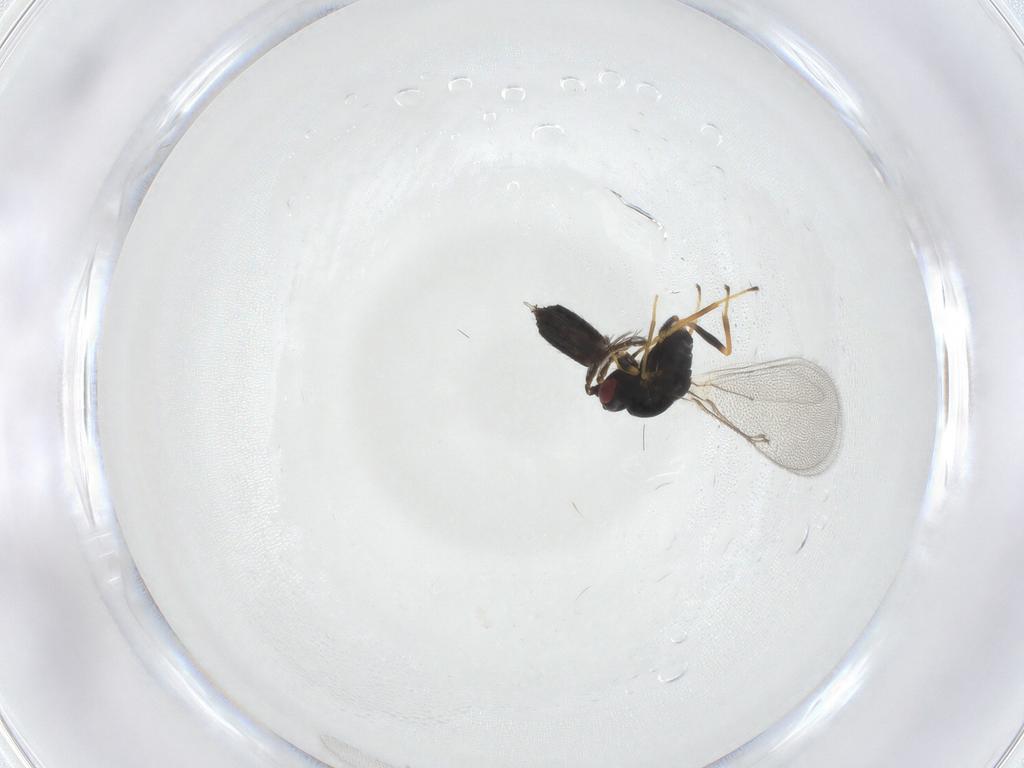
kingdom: Animalia
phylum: Arthropoda
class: Insecta
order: Hymenoptera
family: Eulophidae
